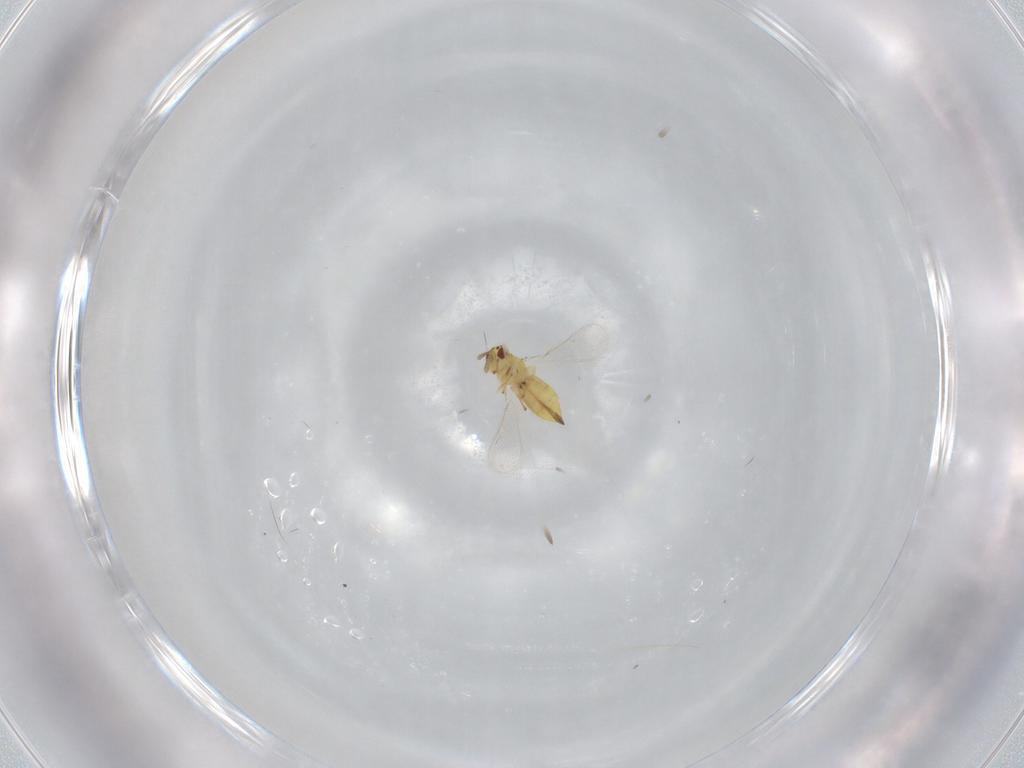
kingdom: Animalia
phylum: Arthropoda
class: Insecta
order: Hymenoptera
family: Eulophidae
